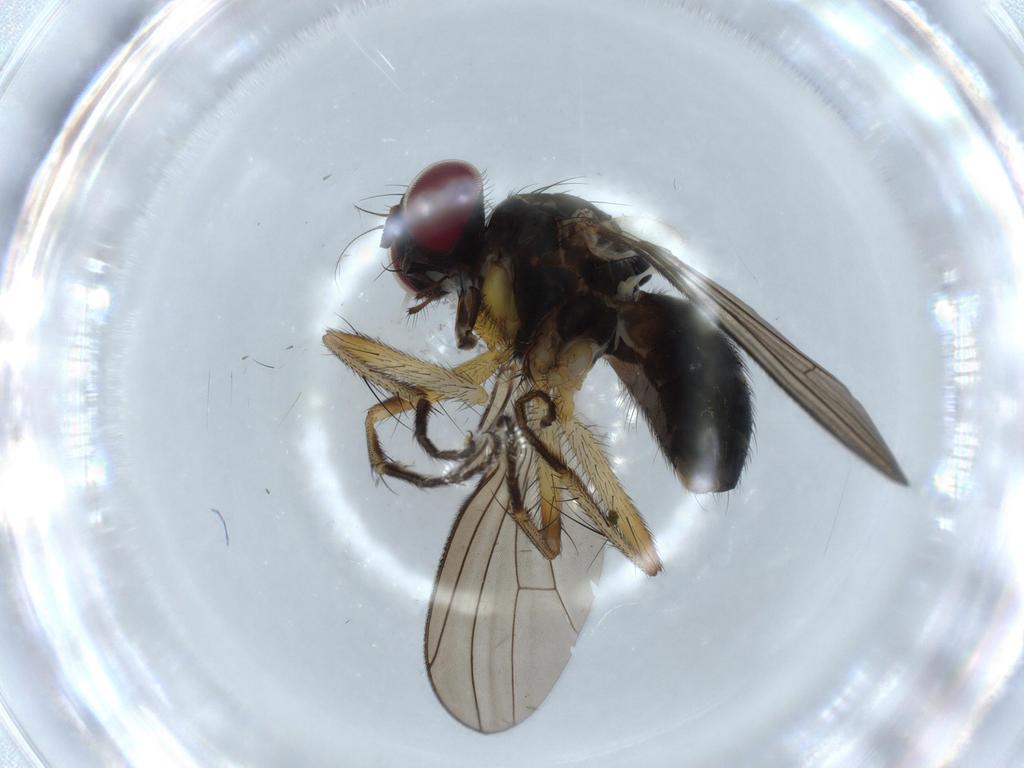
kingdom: Animalia
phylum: Arthropoda
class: Insecta
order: Diptera
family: Muscidae
